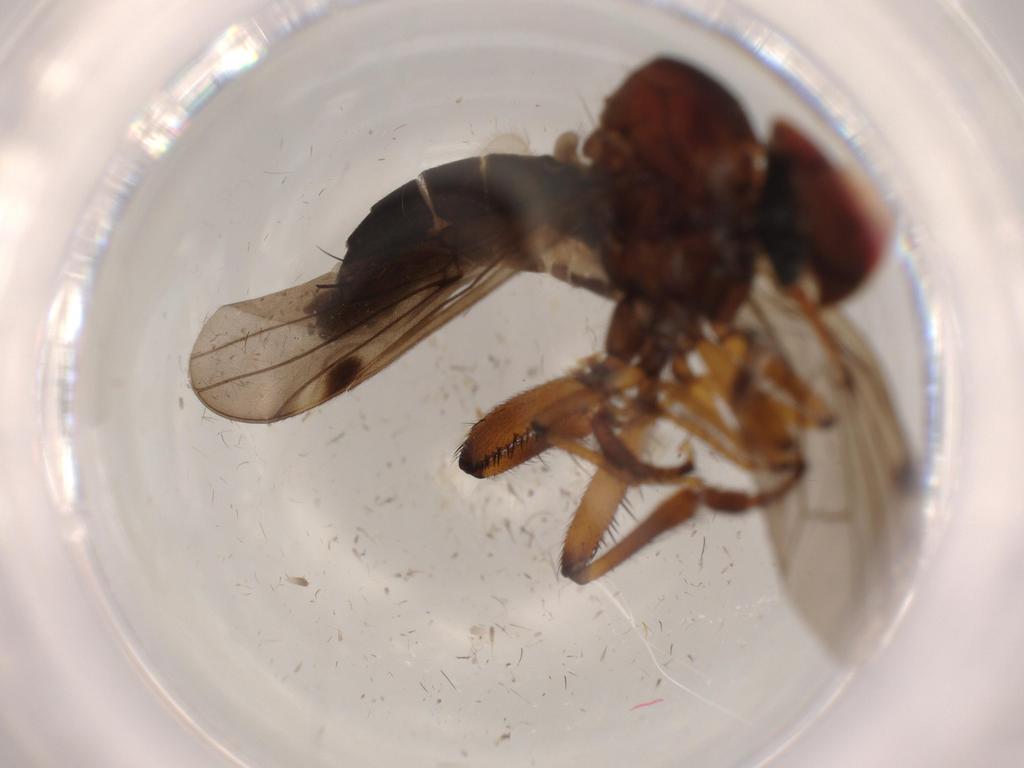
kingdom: Animalia
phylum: Arthropoda
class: Insecta
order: Diptera
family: Hybotidae
